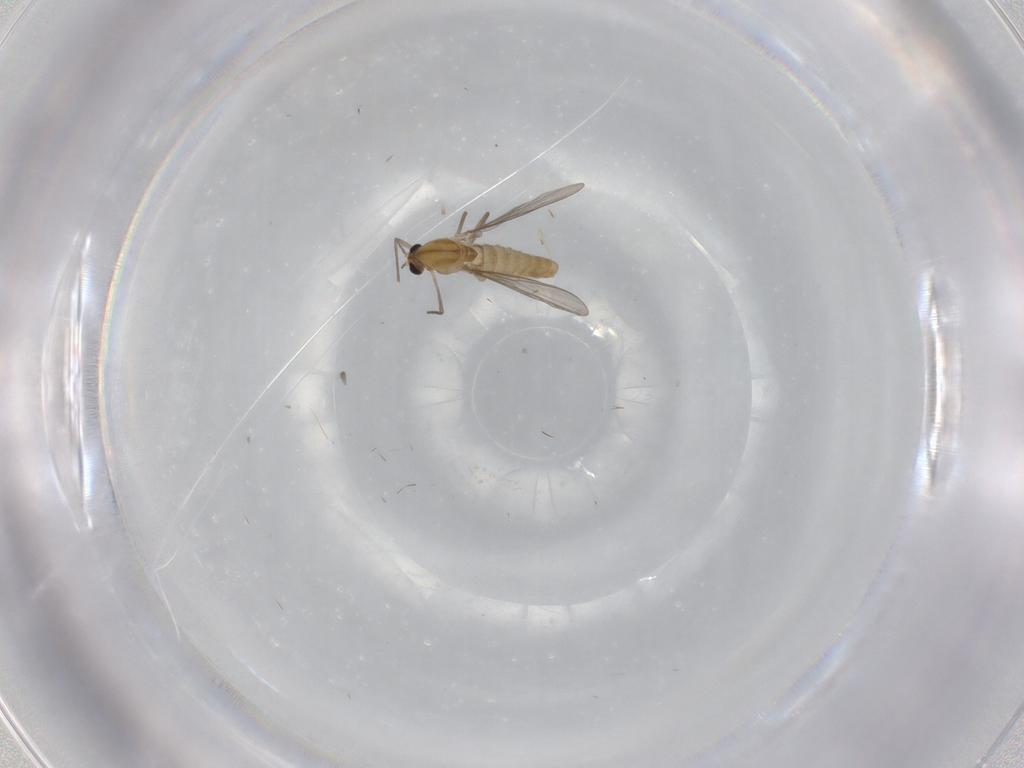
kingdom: Animalia
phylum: Arthropoda
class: Insecta
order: Diptera
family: Chironomidae
